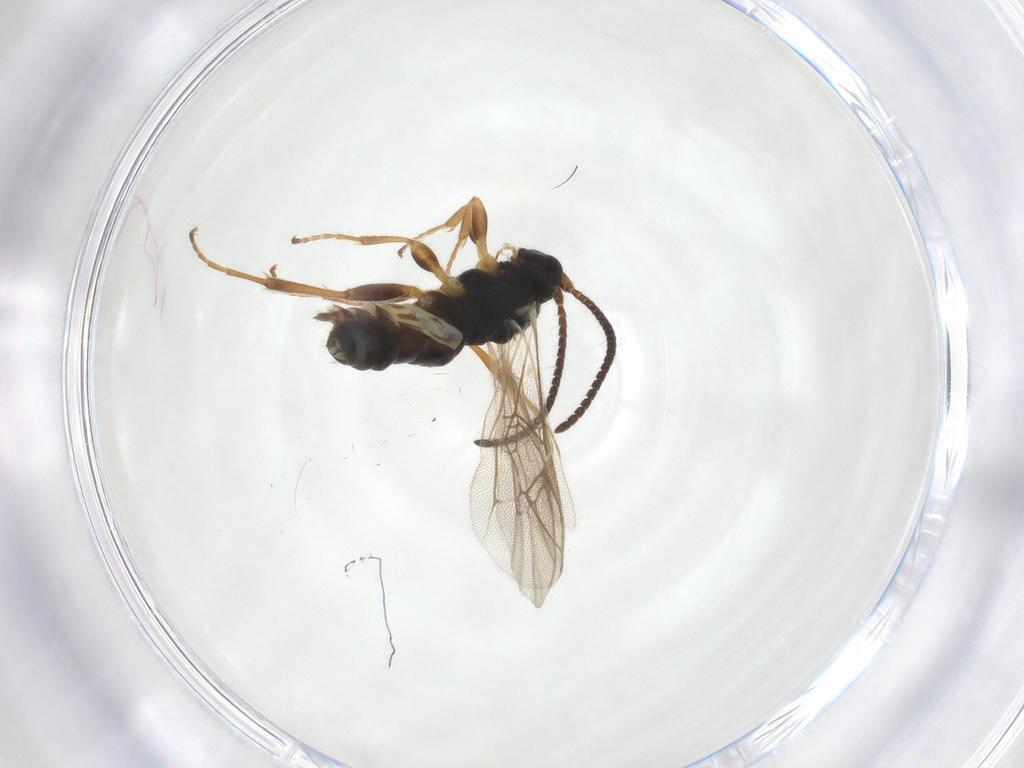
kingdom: Animalia
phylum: Arthropoda
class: Insecta
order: Hymenoptera
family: Ichneumonidae
